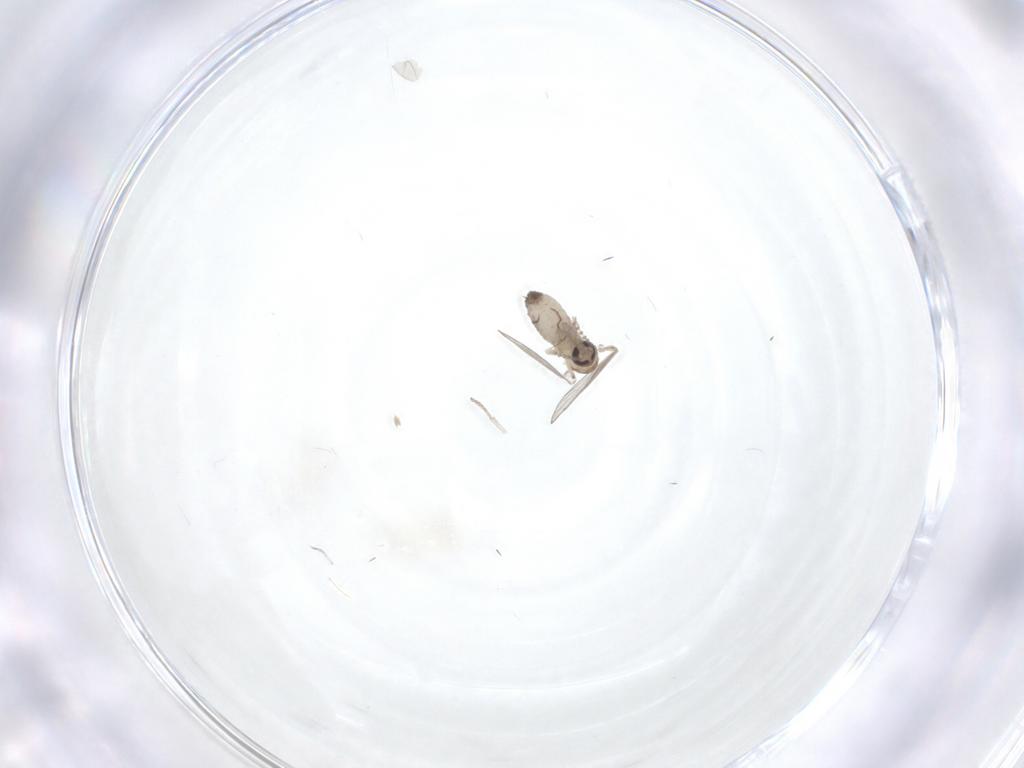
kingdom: Animalia
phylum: Arthropoda
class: Insecta
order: Diptera
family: Psychodidae
